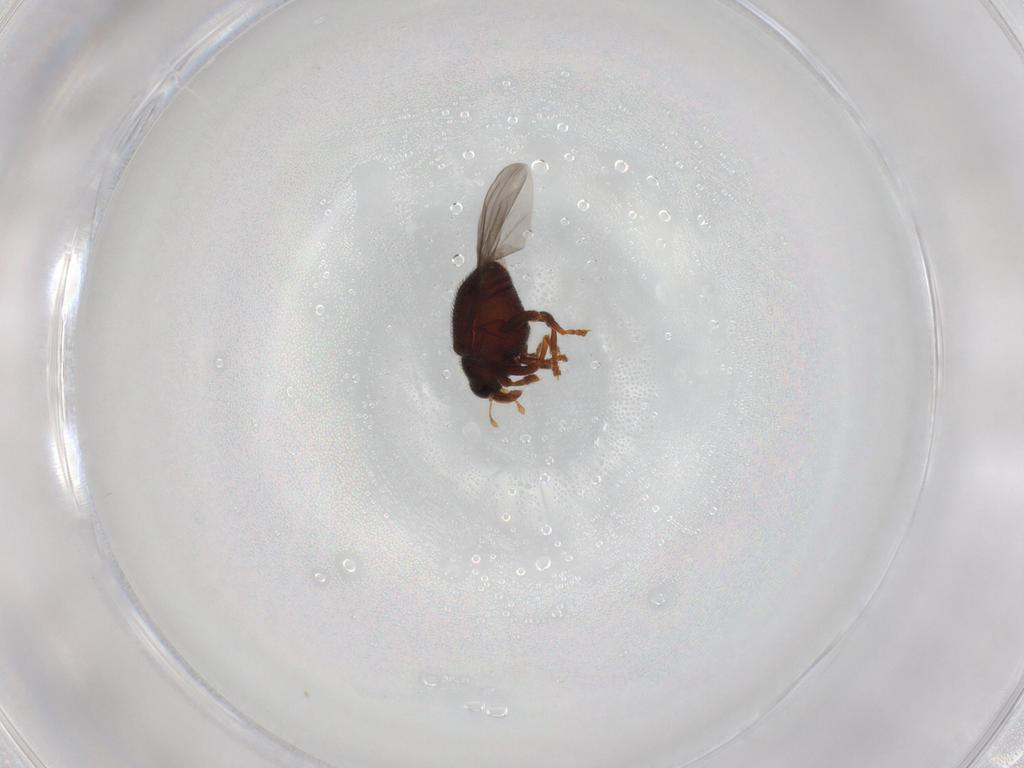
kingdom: Animalia
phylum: Arthropoda
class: Insecta
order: Coleoptera
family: Curculionidae
